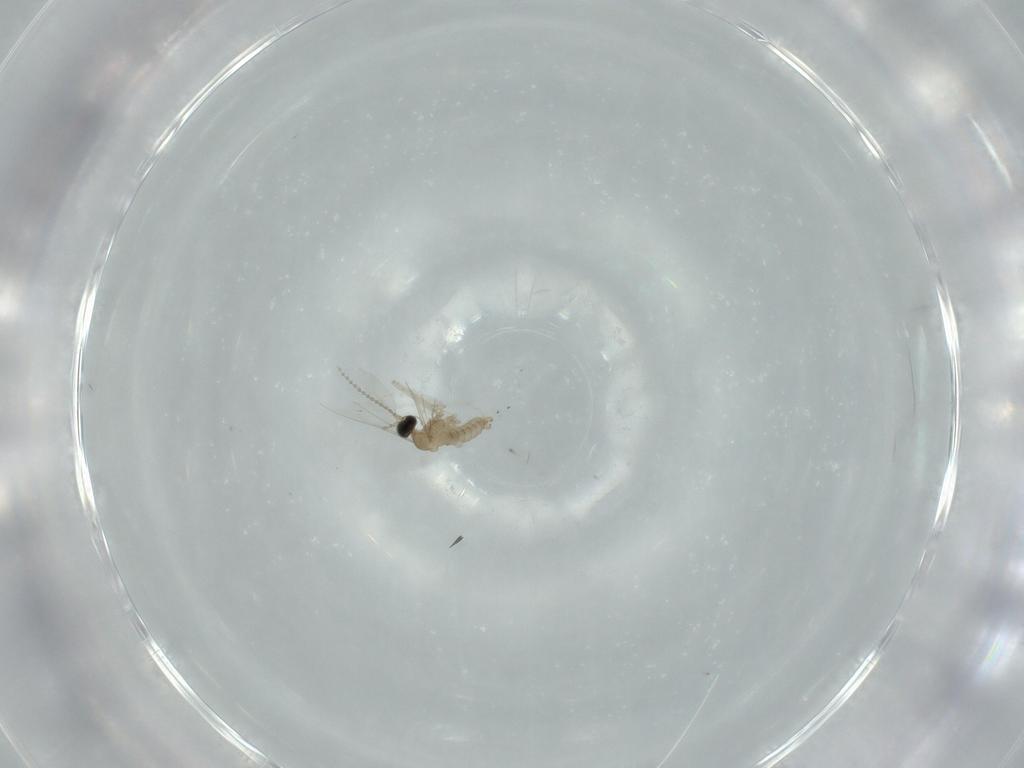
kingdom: Animalia
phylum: Arthropoda
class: Insecta
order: Diptera
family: Cecidomyiidae
